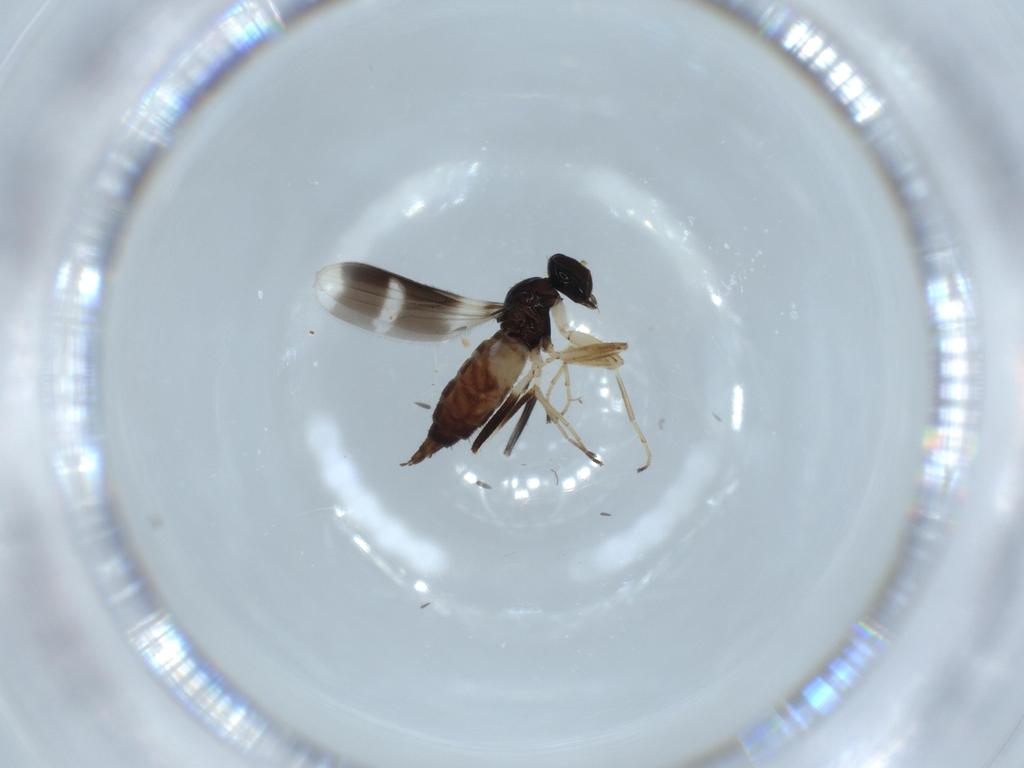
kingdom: Animalia
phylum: Arthropoda
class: Insecta
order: Diptera
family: Hybotidae
